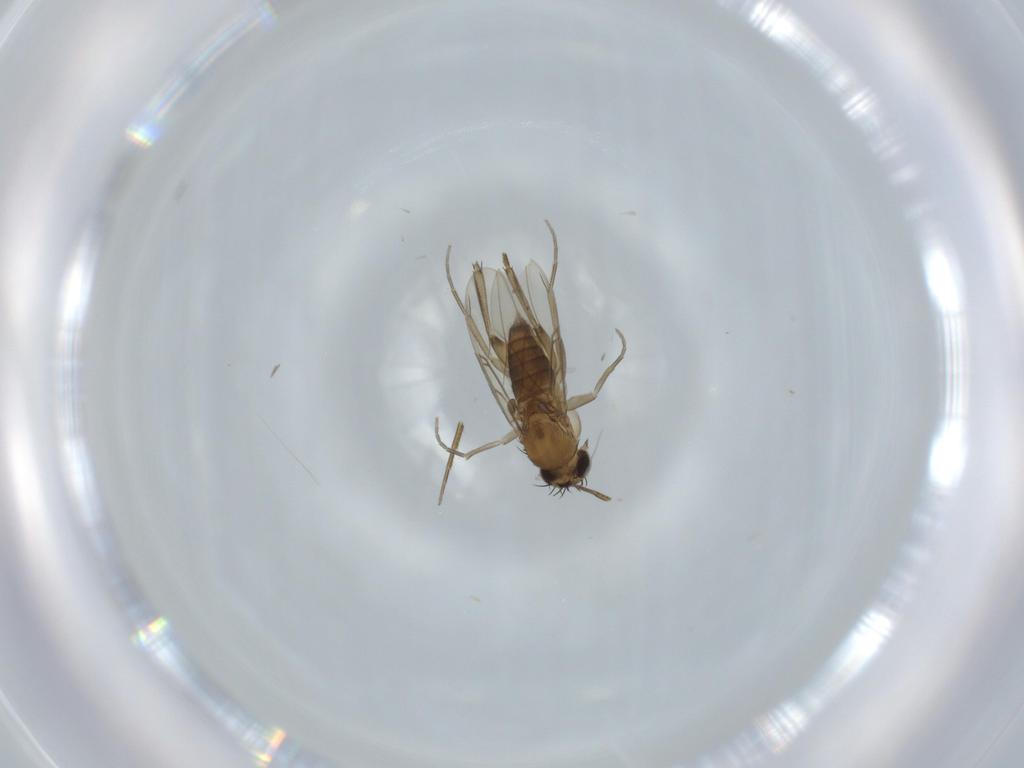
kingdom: Animalia
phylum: Arthropoda
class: Insecta
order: Diptera
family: Phoridae
